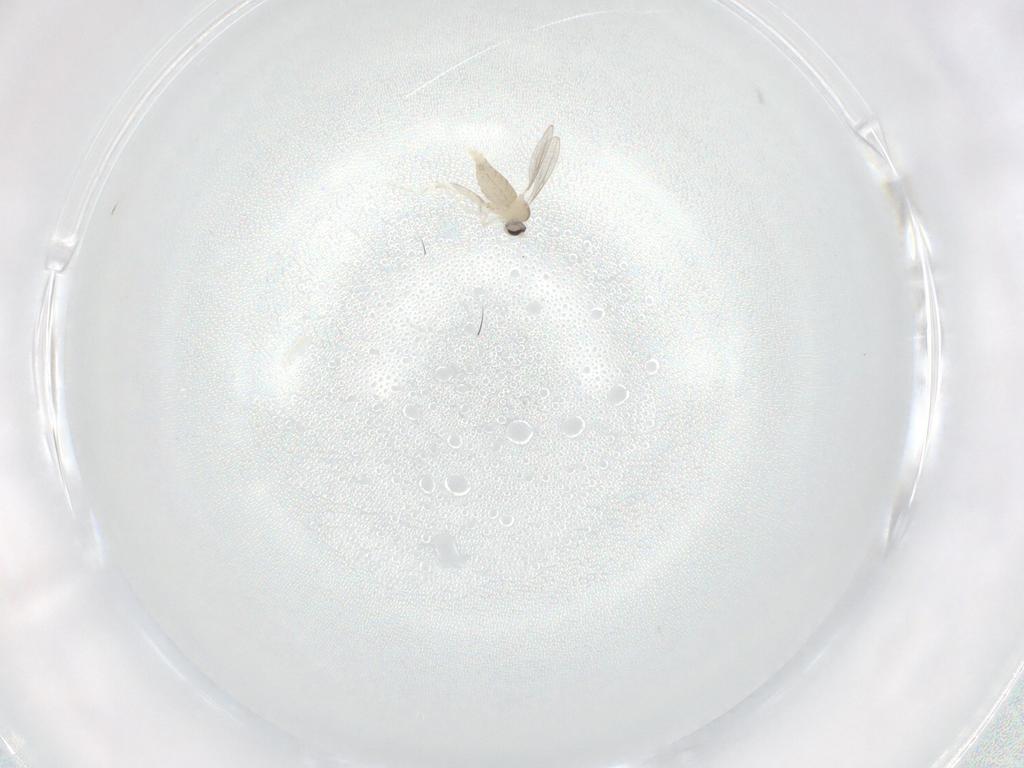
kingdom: Animalia
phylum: Arthropoda
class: Insecta
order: Diptera
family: Cecidomyiidae
